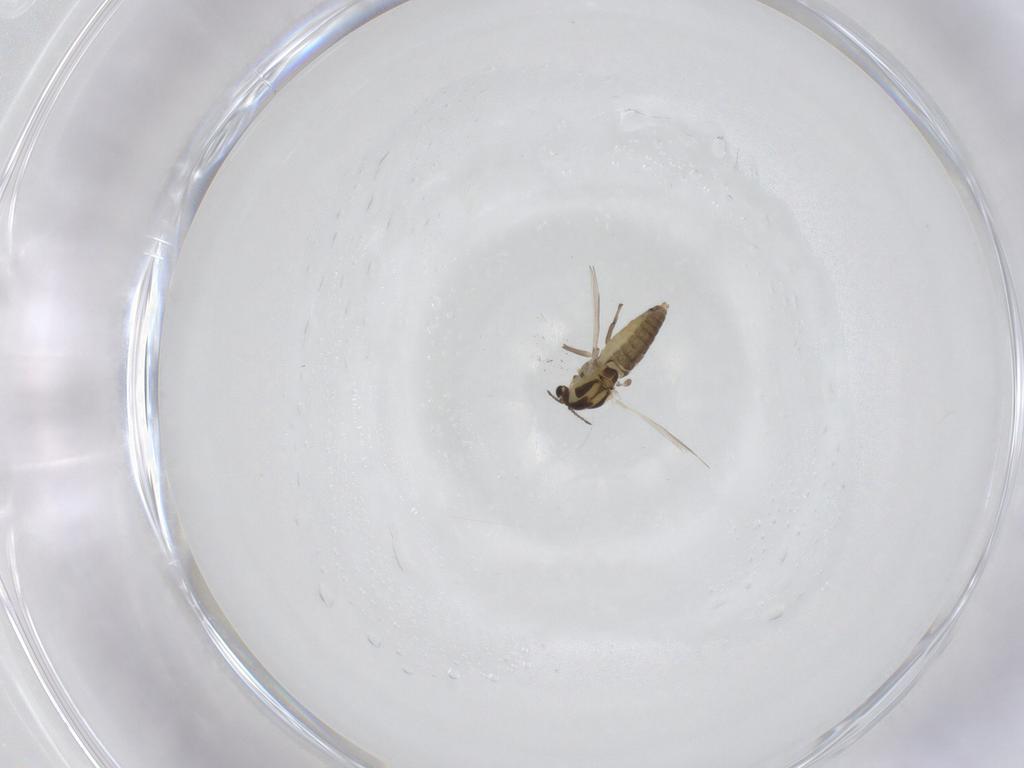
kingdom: Animalia
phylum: Arthropoda
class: Insecta
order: Diptera
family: Chironomidae
